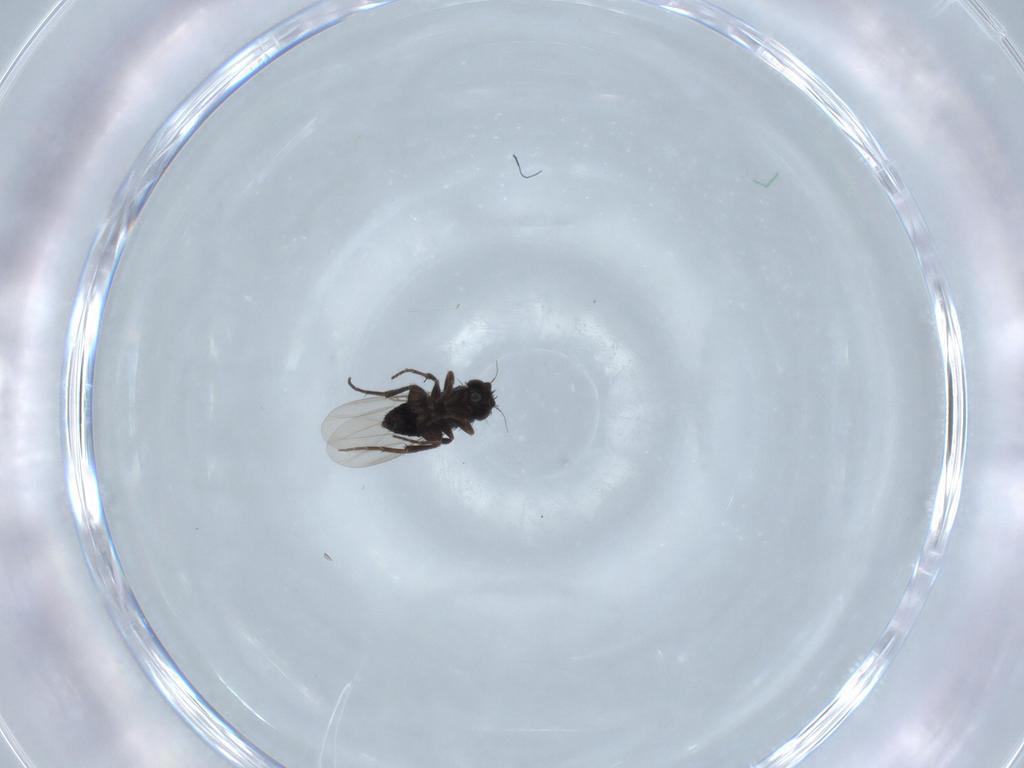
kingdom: Animalia
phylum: Arthropoda
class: Insecta
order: Diptera
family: Phoridae
